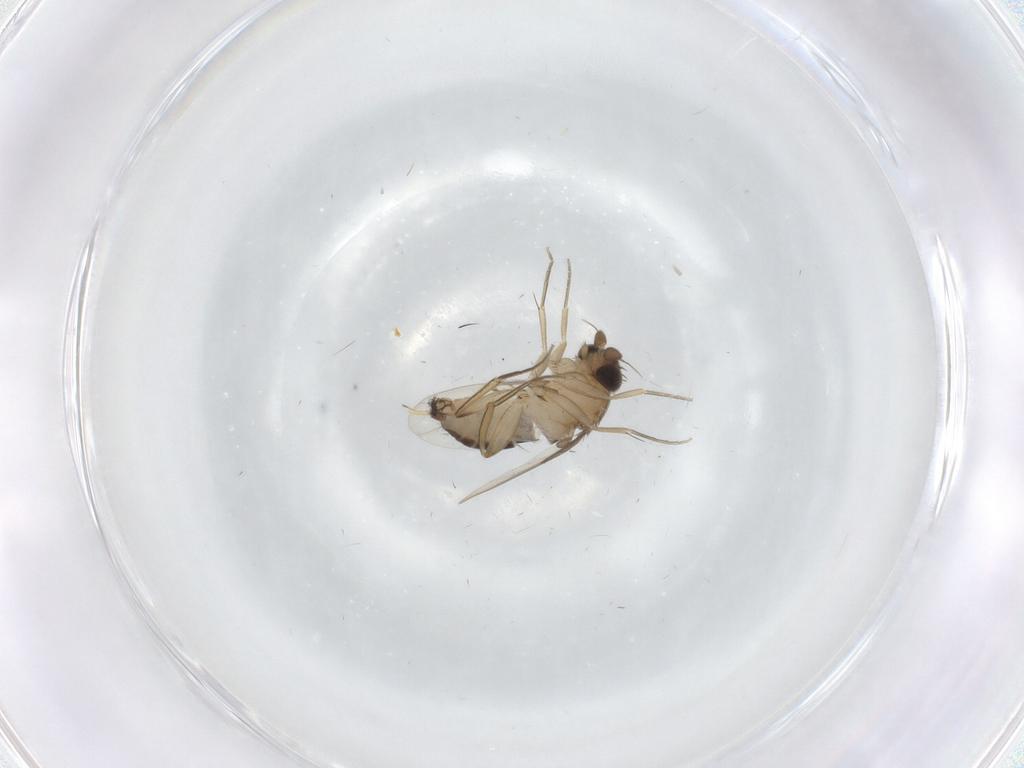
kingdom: Animalia
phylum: Arthropoda
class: Insecta
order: Diptera
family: Phoridae
